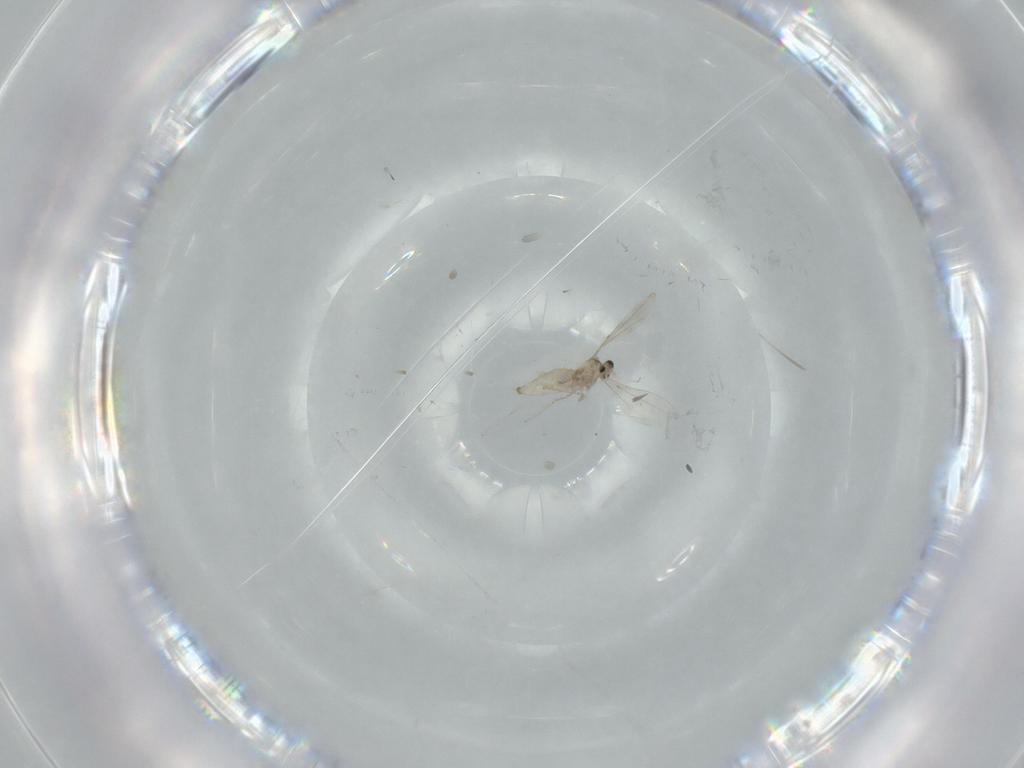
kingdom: Animalia
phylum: Arthropoda
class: Insecta
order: Diptera
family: Cecidomyiidae
